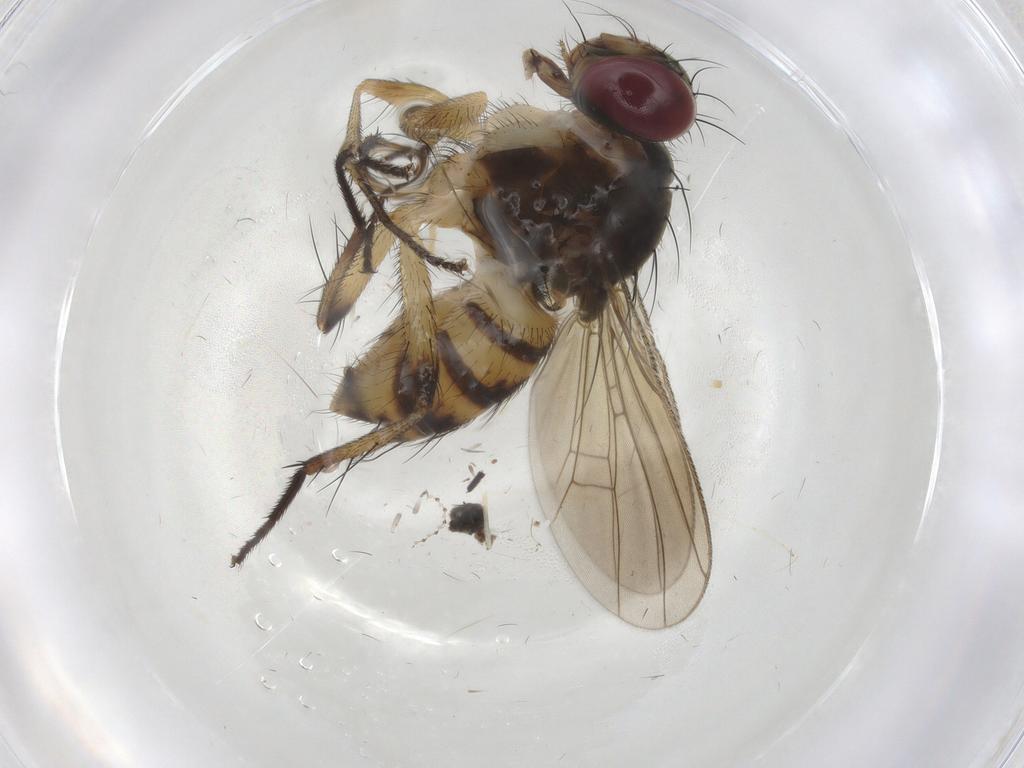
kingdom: Animalia
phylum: Arthropoda
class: Insecta
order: Diptera
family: Chironomidae
